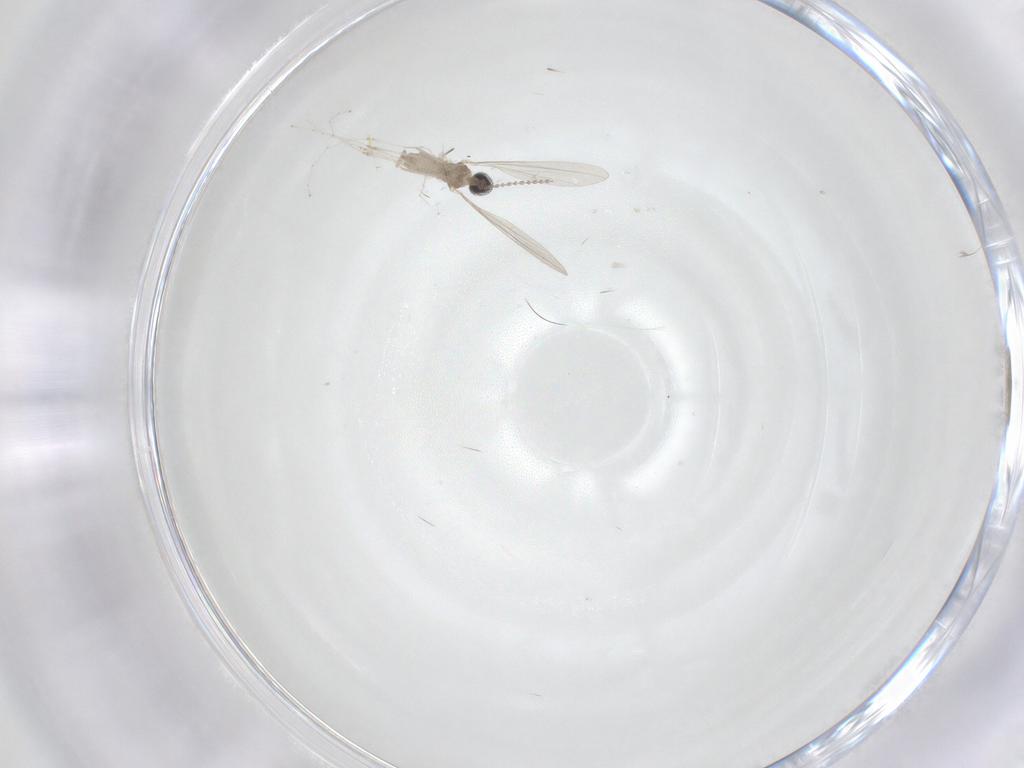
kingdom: Animalia
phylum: Arthropoda
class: Insecta
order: Diptera
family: Cecidomyiidae
